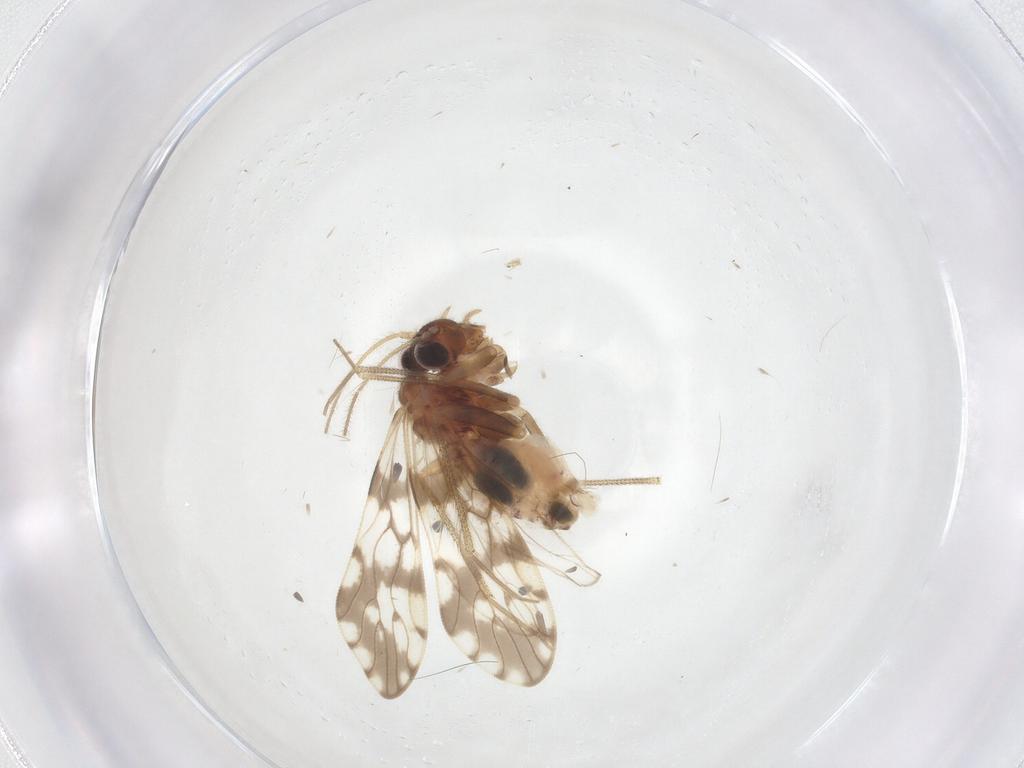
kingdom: Animalia
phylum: Arthropoda
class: Insecta
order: Psocodea
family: Epipsocidae
